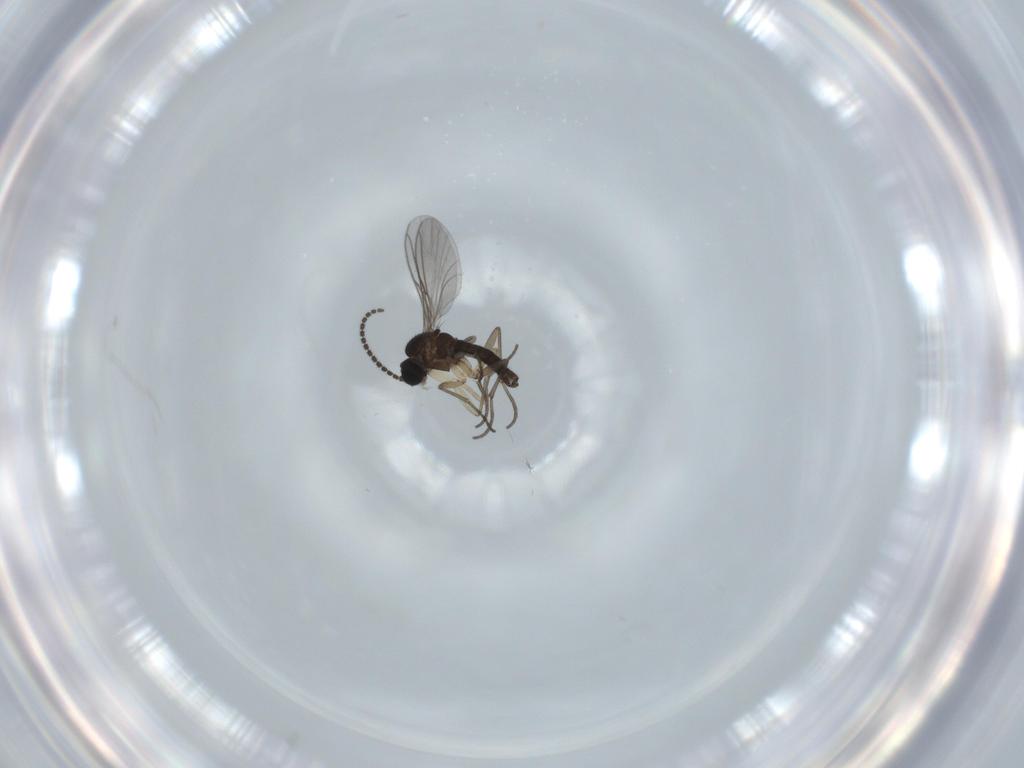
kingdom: Animalia
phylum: Arthropoda
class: Insecta
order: Diptera
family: Sciaridae
